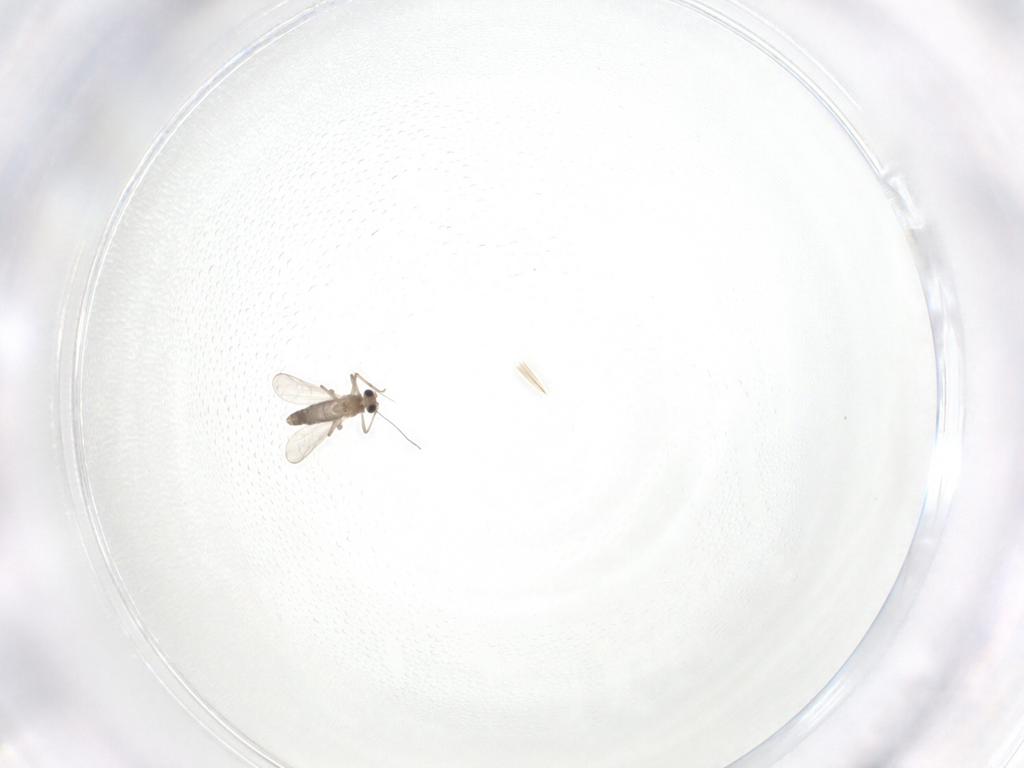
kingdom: Animalia
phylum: Arthropoda
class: Insecta
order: Diptera
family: Chironomidae
